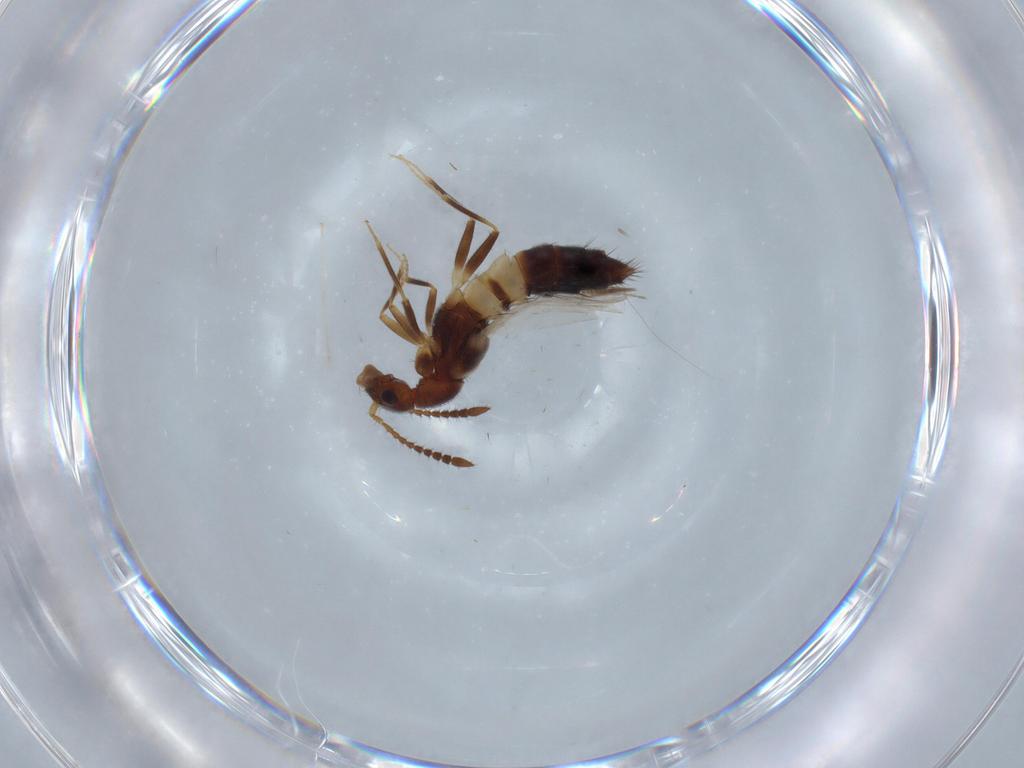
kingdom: Animalia
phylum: Arthropoda
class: Insecta
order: Coleoptera
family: Staphylinidae
